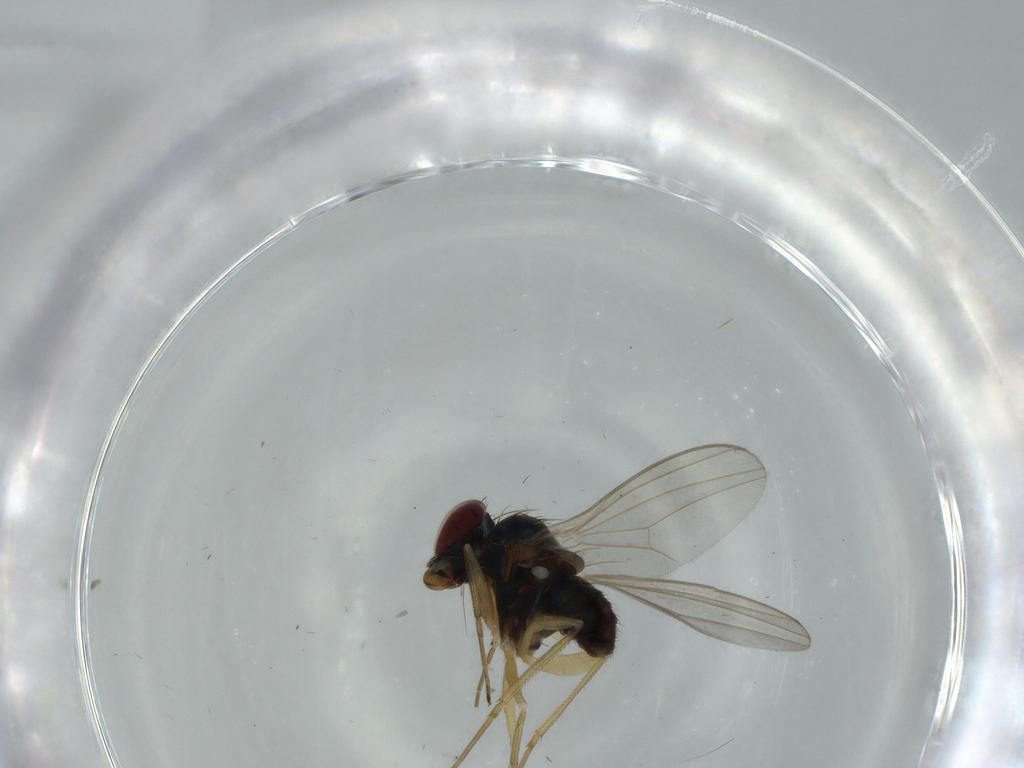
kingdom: Animalia
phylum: Arthropoda
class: Insecta
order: Diptera
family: Dolichopodidae
